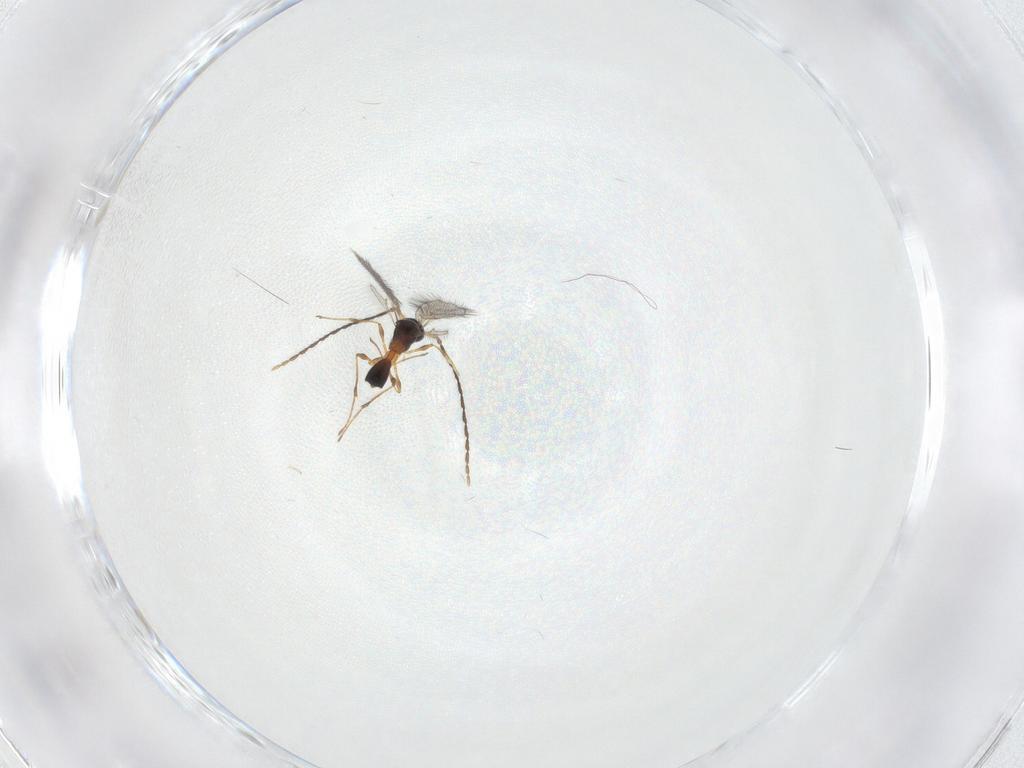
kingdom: Animalia
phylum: Arthropoda
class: Insecta
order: Hymenoptera
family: Diapriidae
